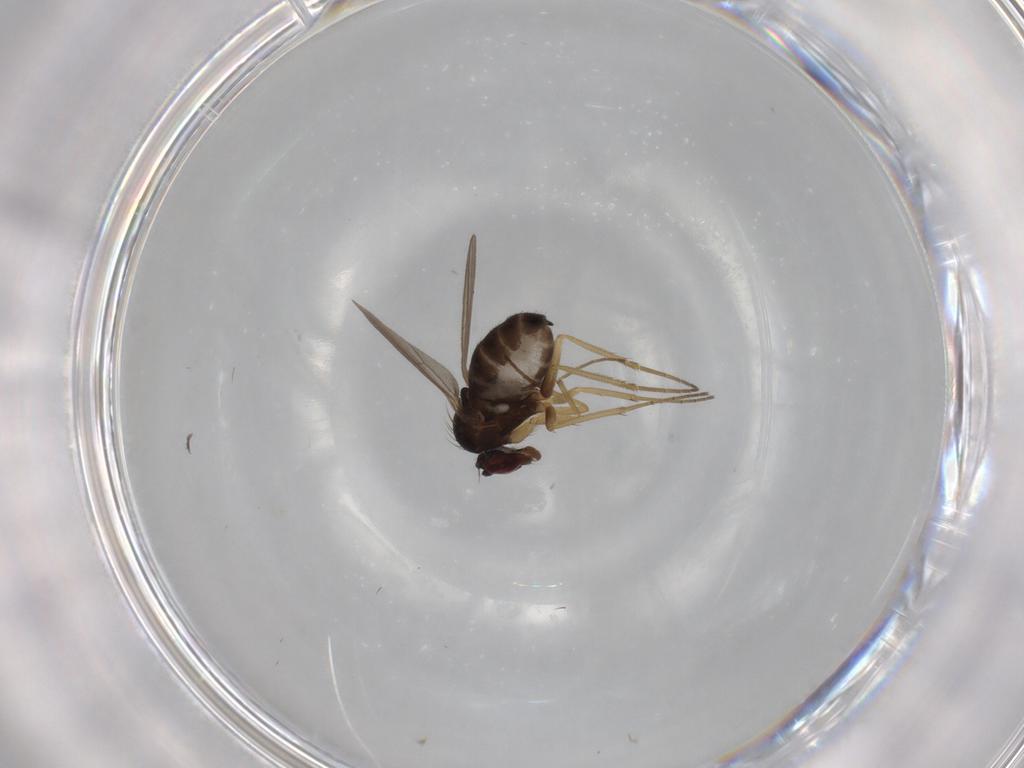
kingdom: Animalia
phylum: Arthropoda
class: Insecta
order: Diptera
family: Dolichopodidae
